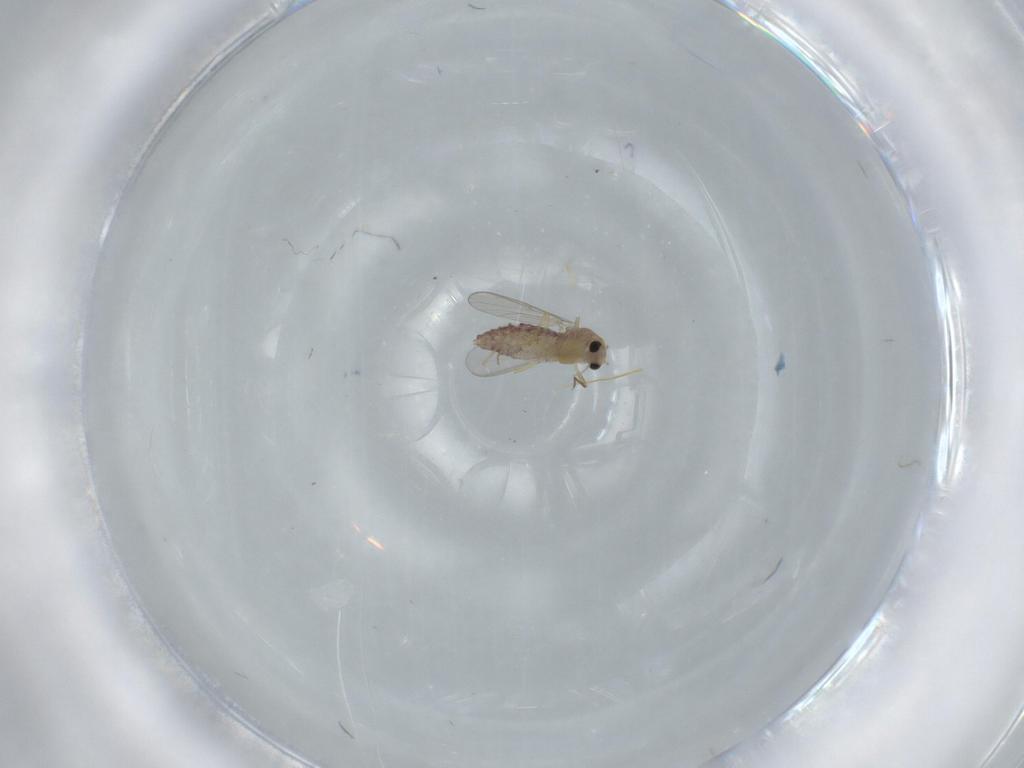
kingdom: Animalia
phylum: Arthropoda
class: Insecta
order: Diptera
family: Chironomidae
